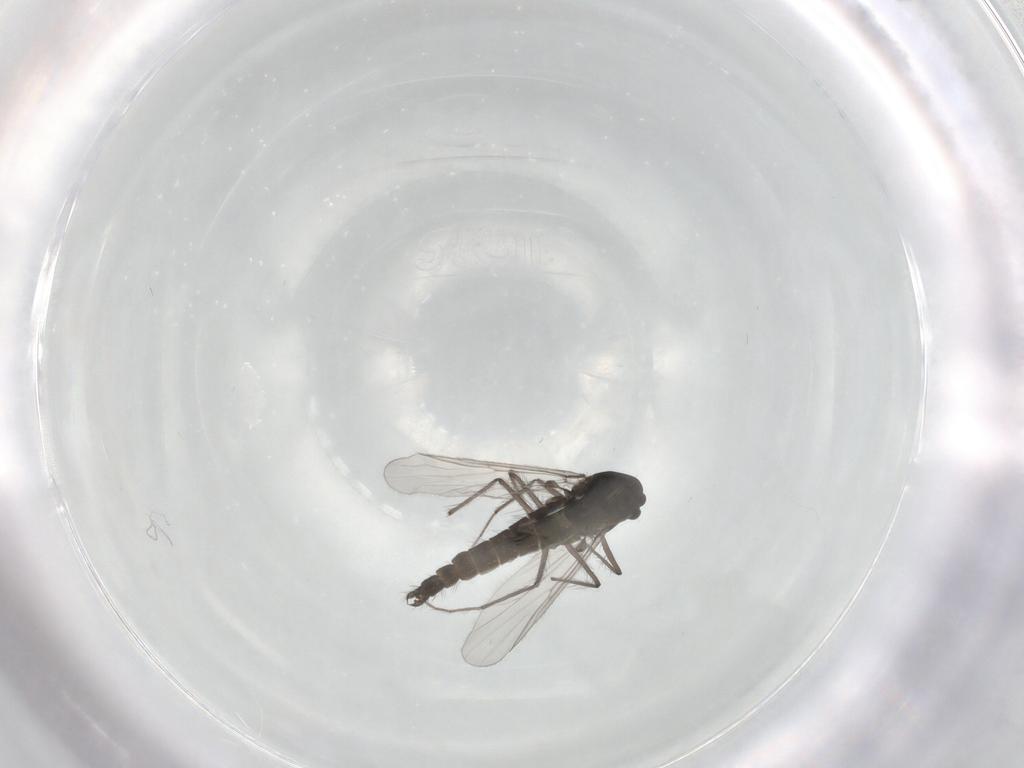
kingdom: Animalia
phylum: Arthropoda
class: Insecta
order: Diptera
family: Chironomidae
